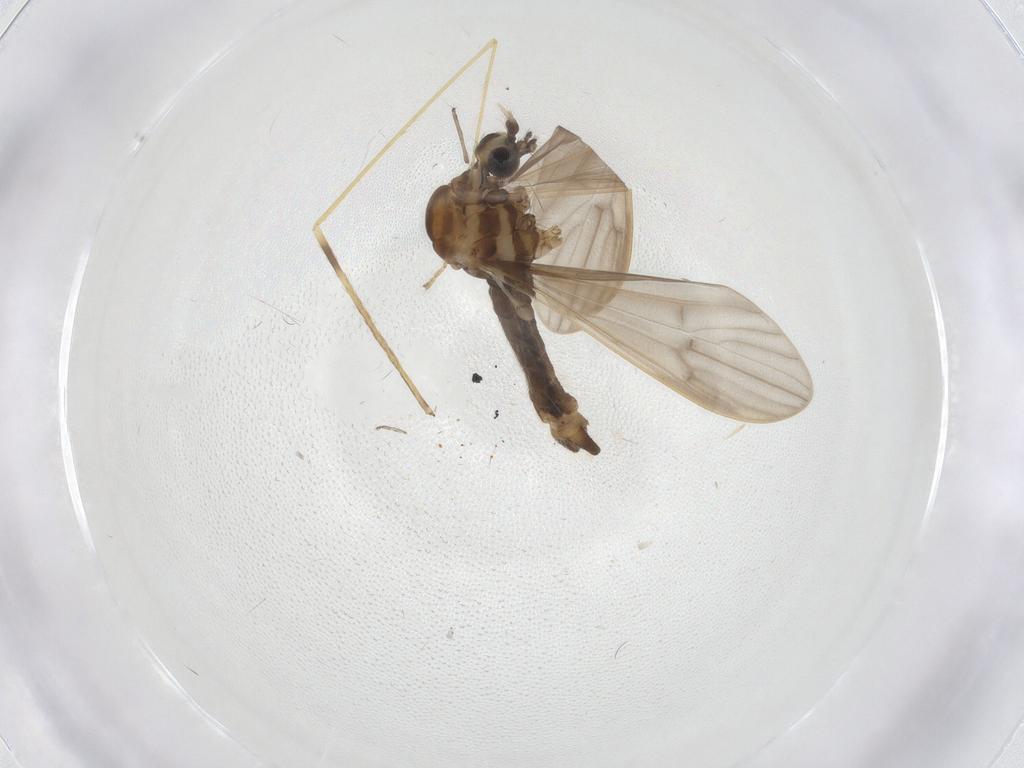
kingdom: Animalia
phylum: Arthropoda
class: Insecta
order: Diptera
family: Limoniidae
